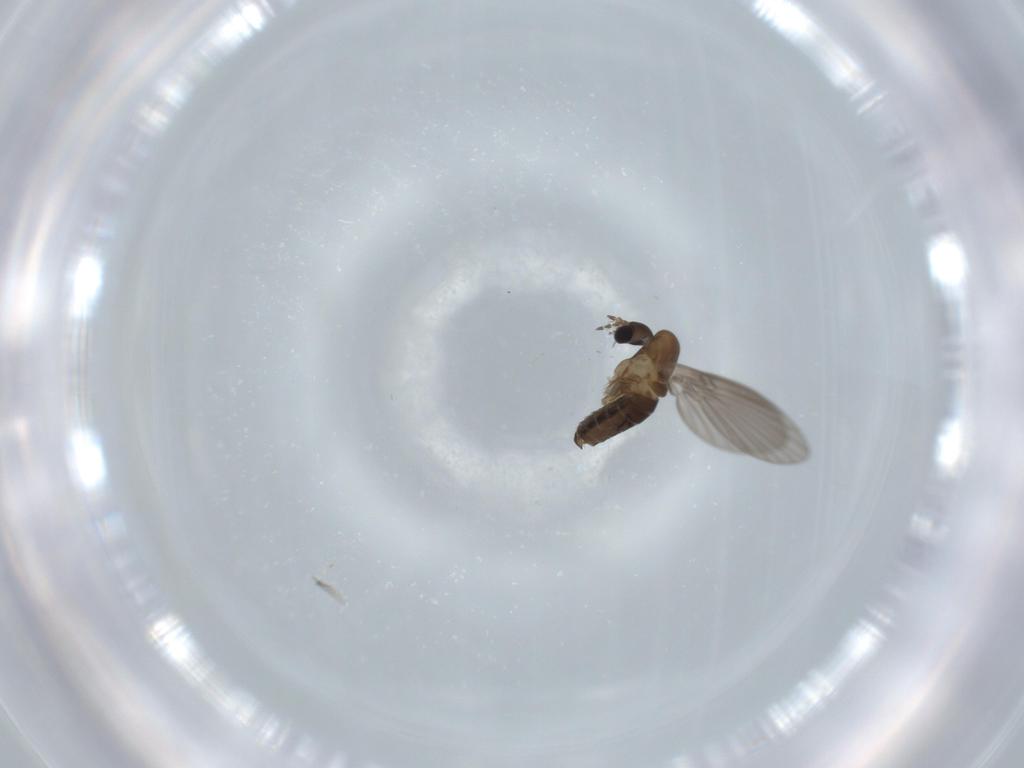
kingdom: Animalia
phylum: Arthropoda
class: Insecta
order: Diptera
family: Psychodidae
